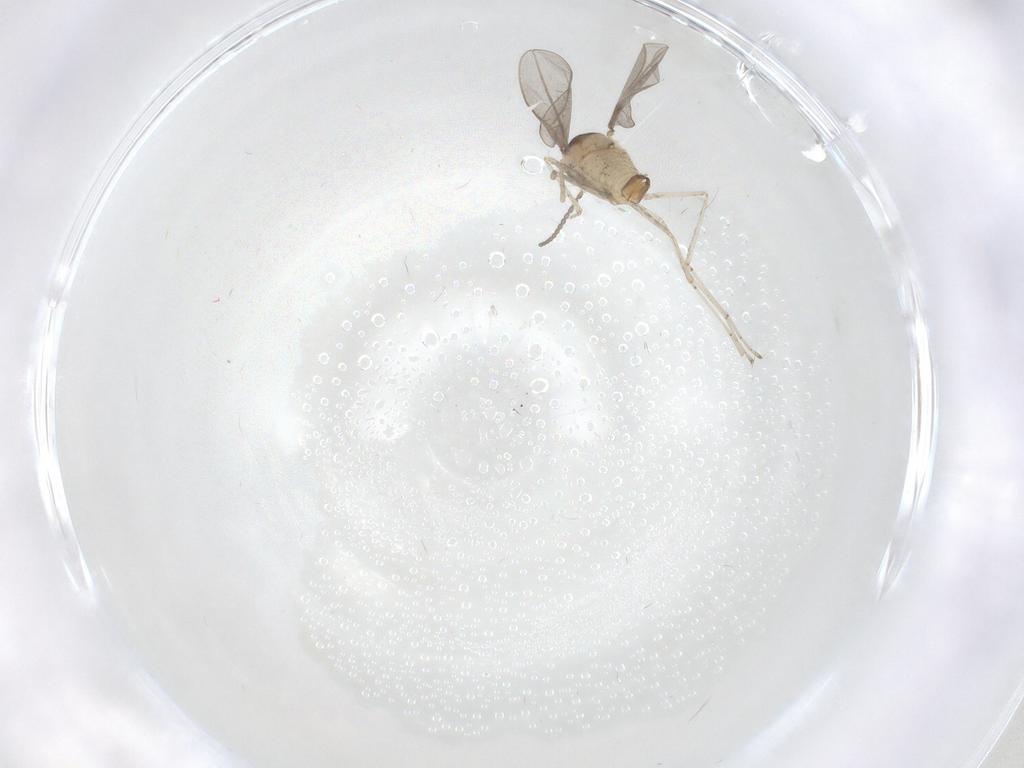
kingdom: Animalia
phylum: Arthropoda
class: Insecta
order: Diptera
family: Cecidomyiidae
